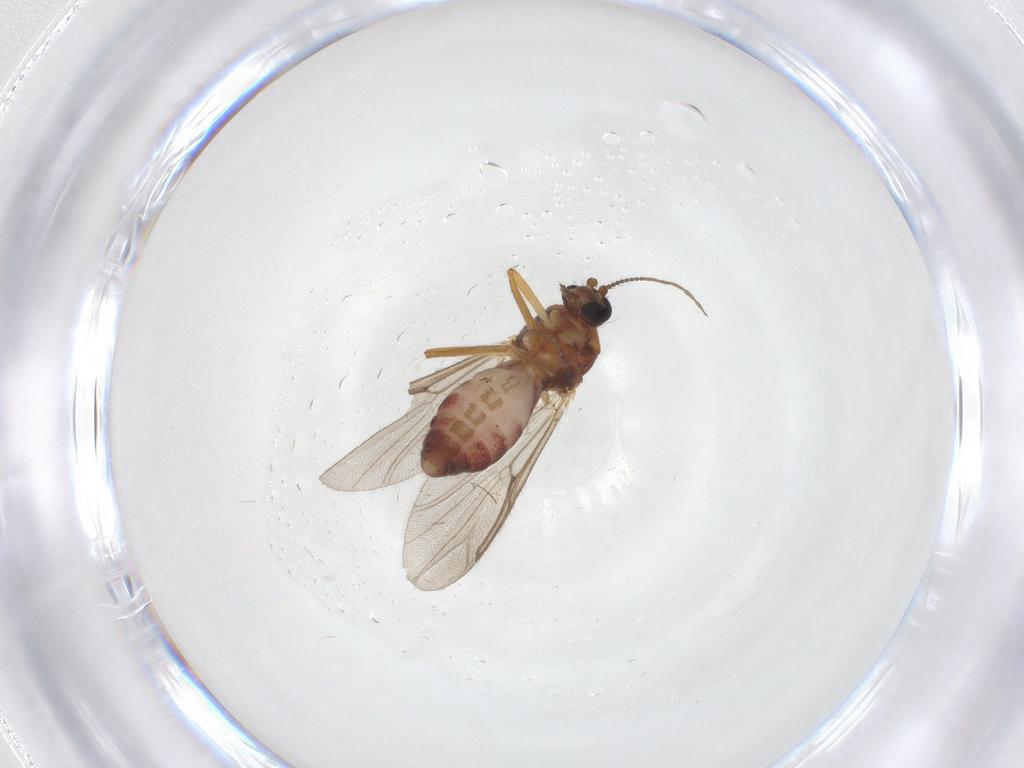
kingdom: Animalia
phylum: Arthropoda
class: Insecta
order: Diptera
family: Ceratopogonidae
